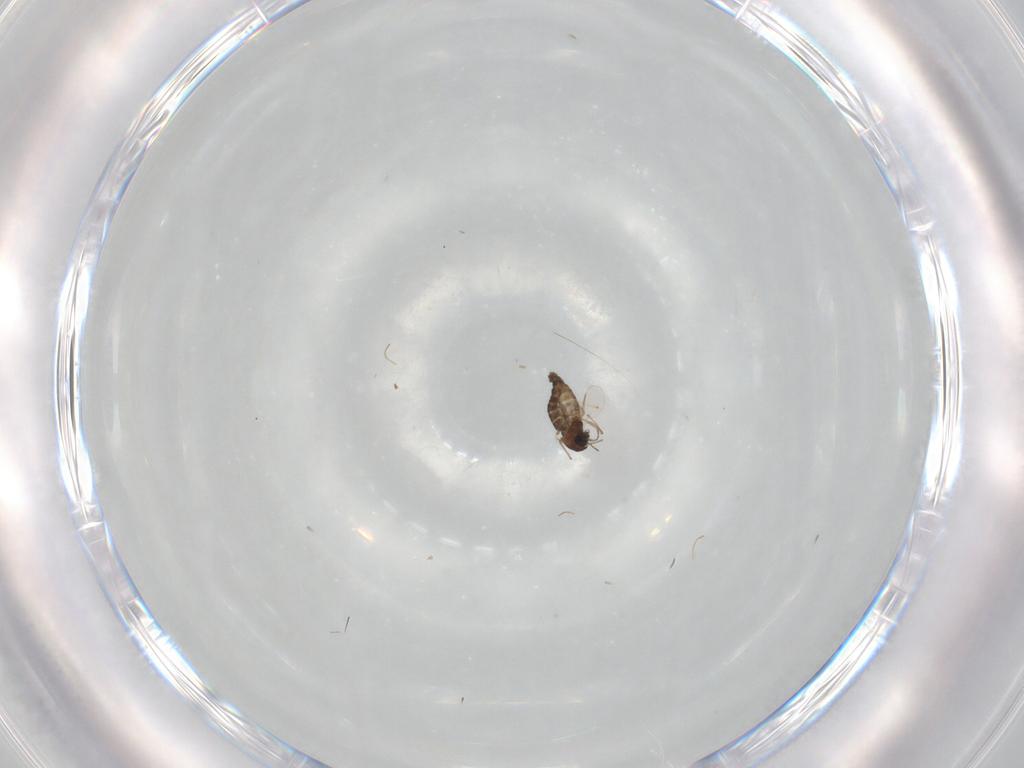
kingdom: Animalia
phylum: Arthropoda
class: Insecta
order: Diptera
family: Chironomidae
